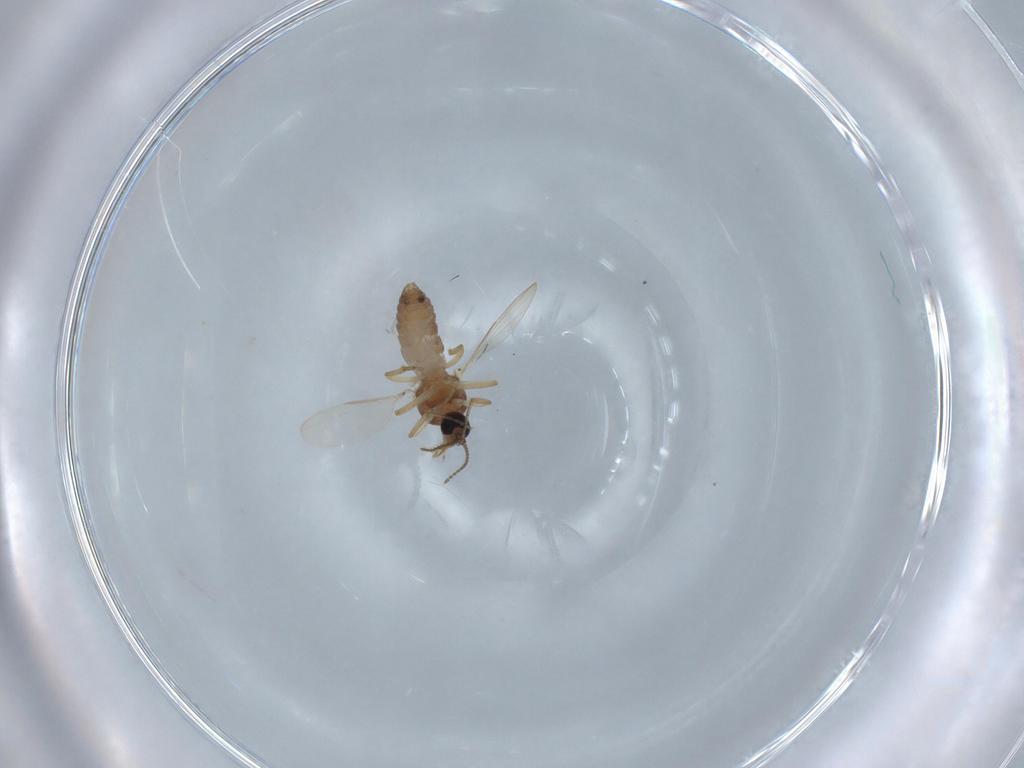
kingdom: Animalia
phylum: Arthropoda
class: Insecta
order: Diptera
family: Ceratopogonidae
